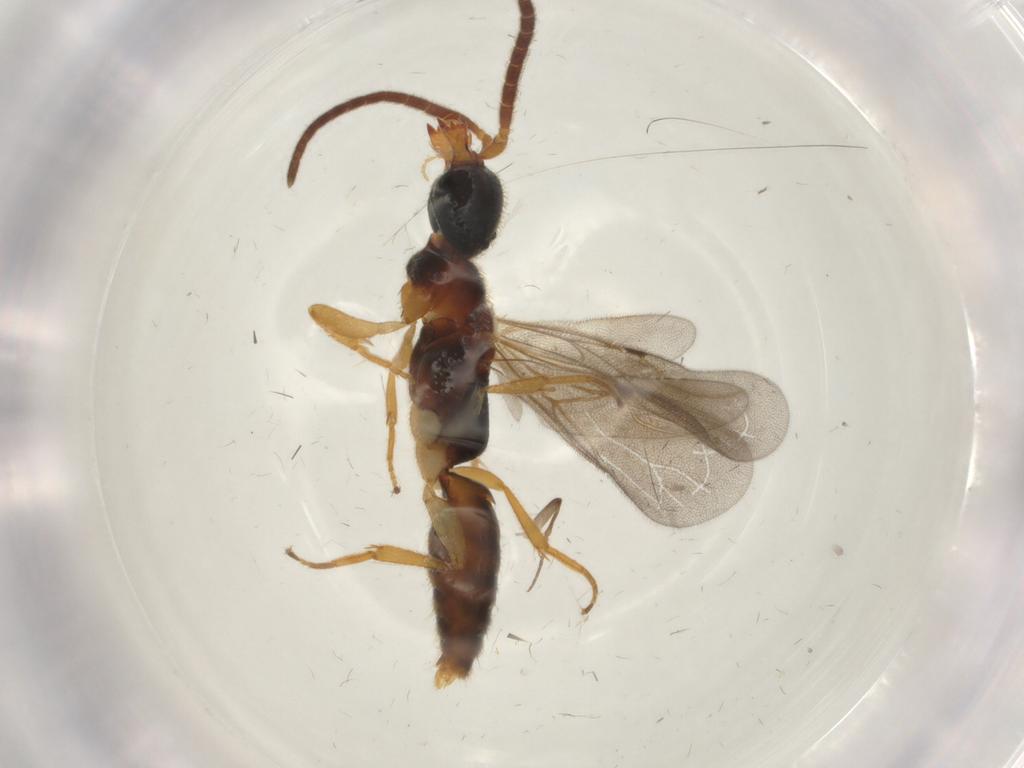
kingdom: Animalia
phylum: Arthropoda
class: Insecta
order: Hymenoptera
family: Bethylidae
